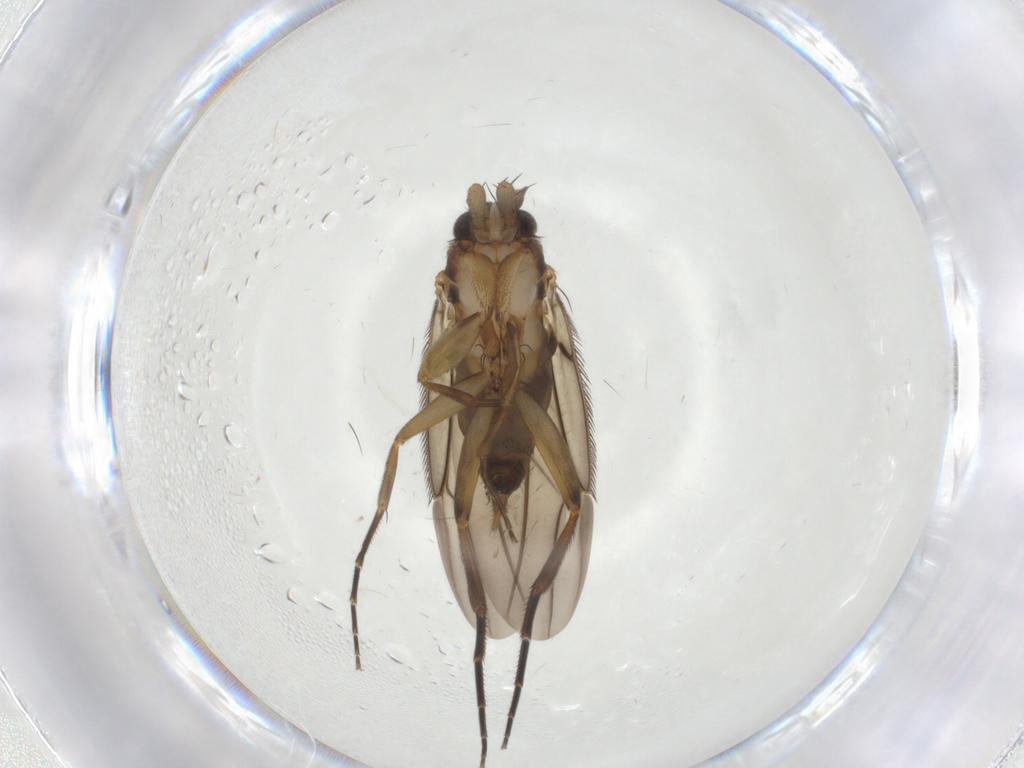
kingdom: Animalia
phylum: Arthropoda
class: Insecta
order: Diptera
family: Phoridae
